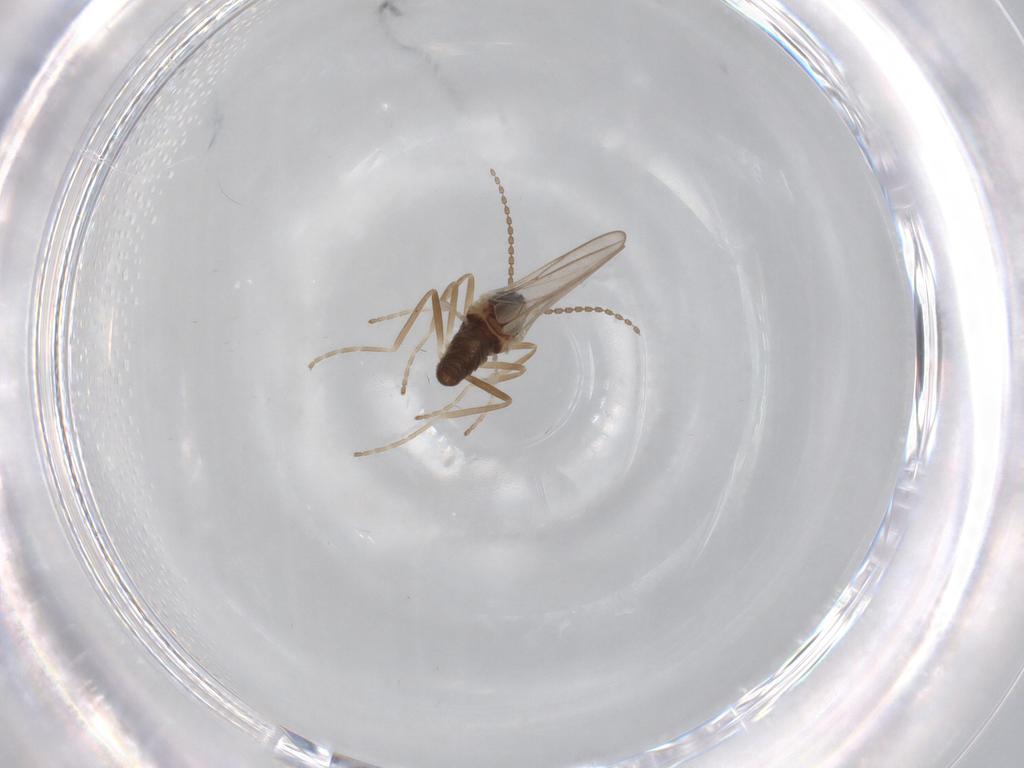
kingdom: Animalia
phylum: Arthropoda
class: Insecta
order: Diptera
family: Cecidomyiidae
